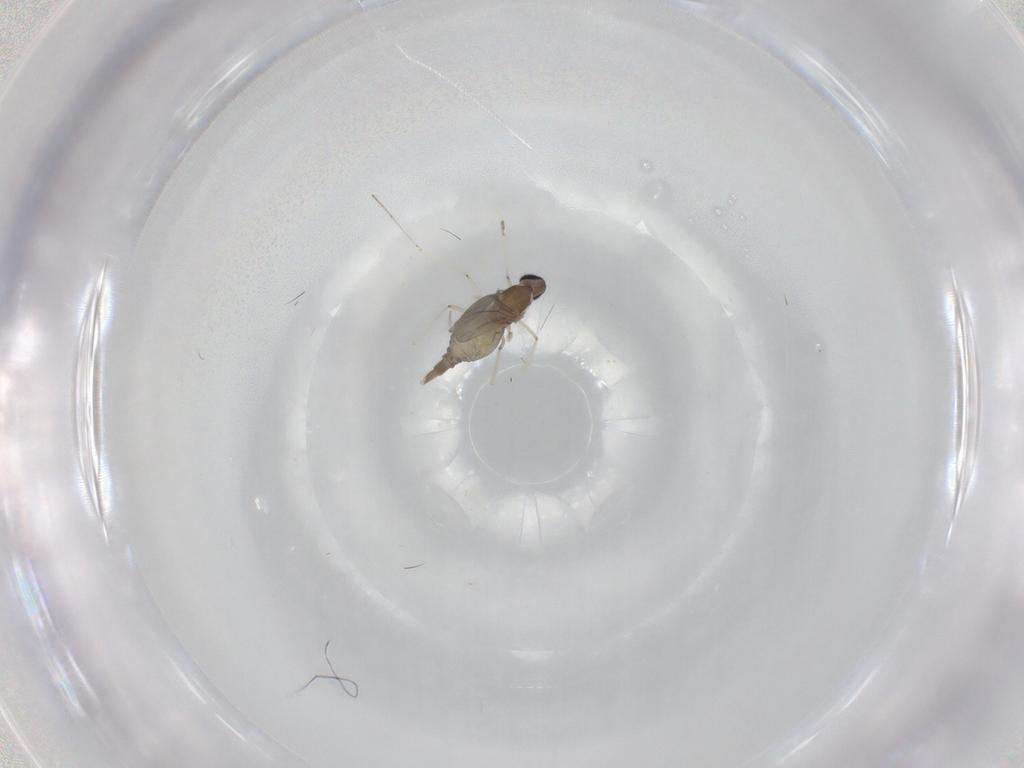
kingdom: Animalia
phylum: Arthropoda
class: Insecta
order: Diptera
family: Cecidomyiidae
